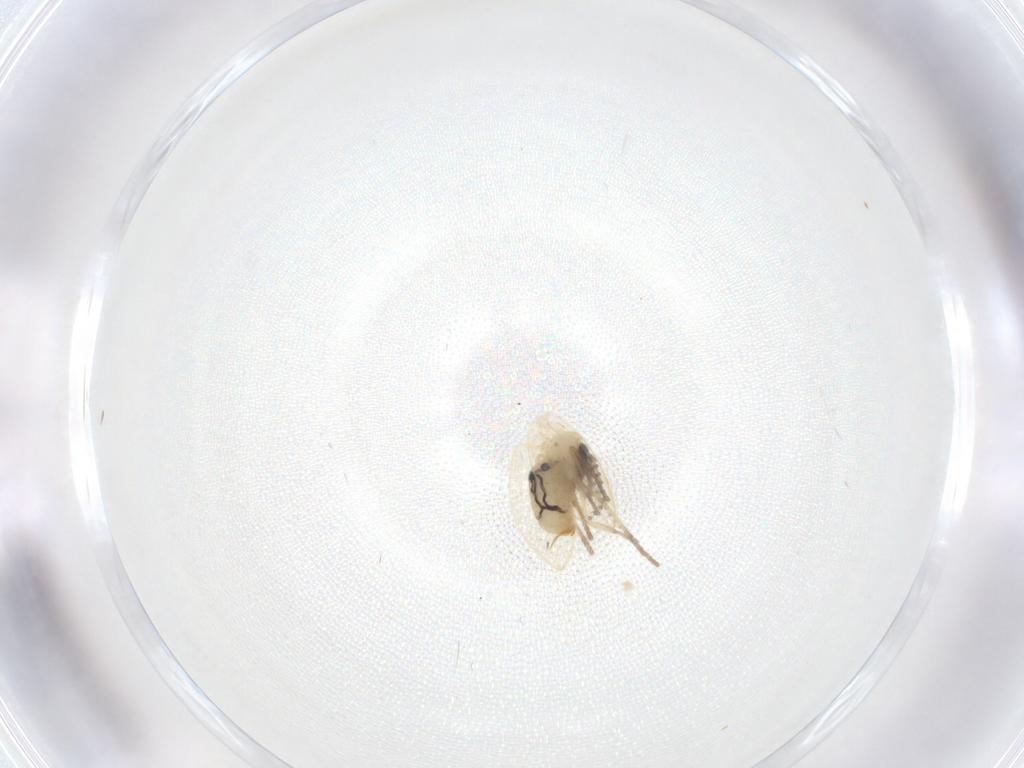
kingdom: Animalia
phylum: Arthropoda
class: Insecta
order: Diptera
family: Psychodidae
